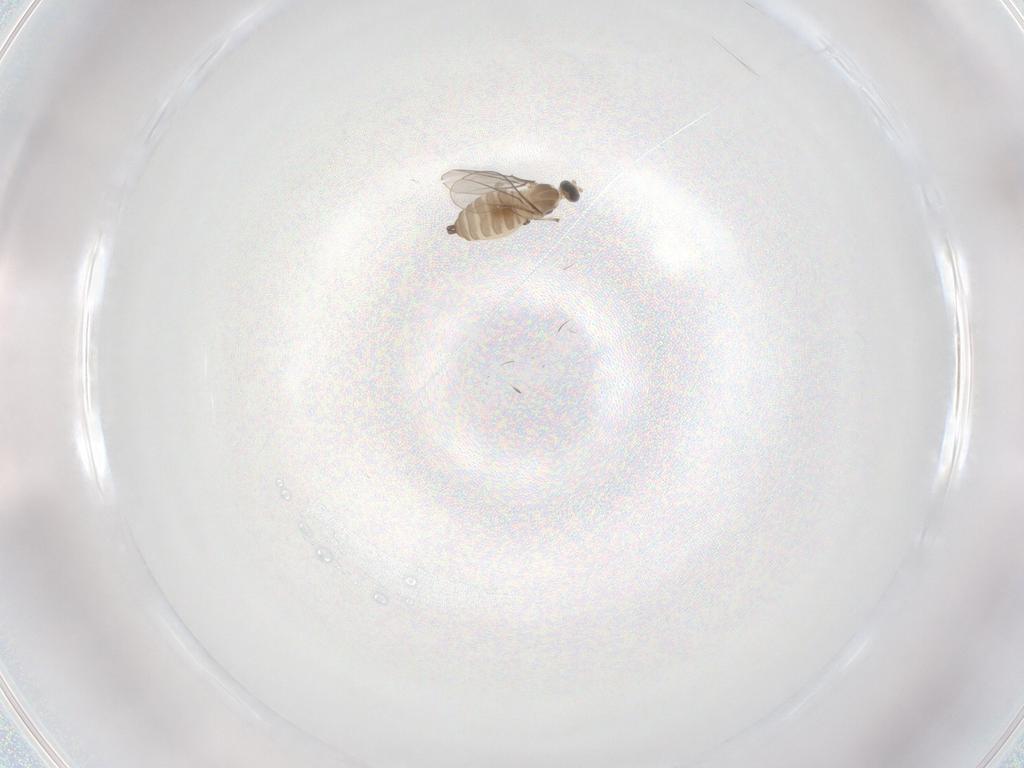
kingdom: Animalia
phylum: Arthropoda
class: Insecta
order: Diptera
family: Cecidomyiidae
